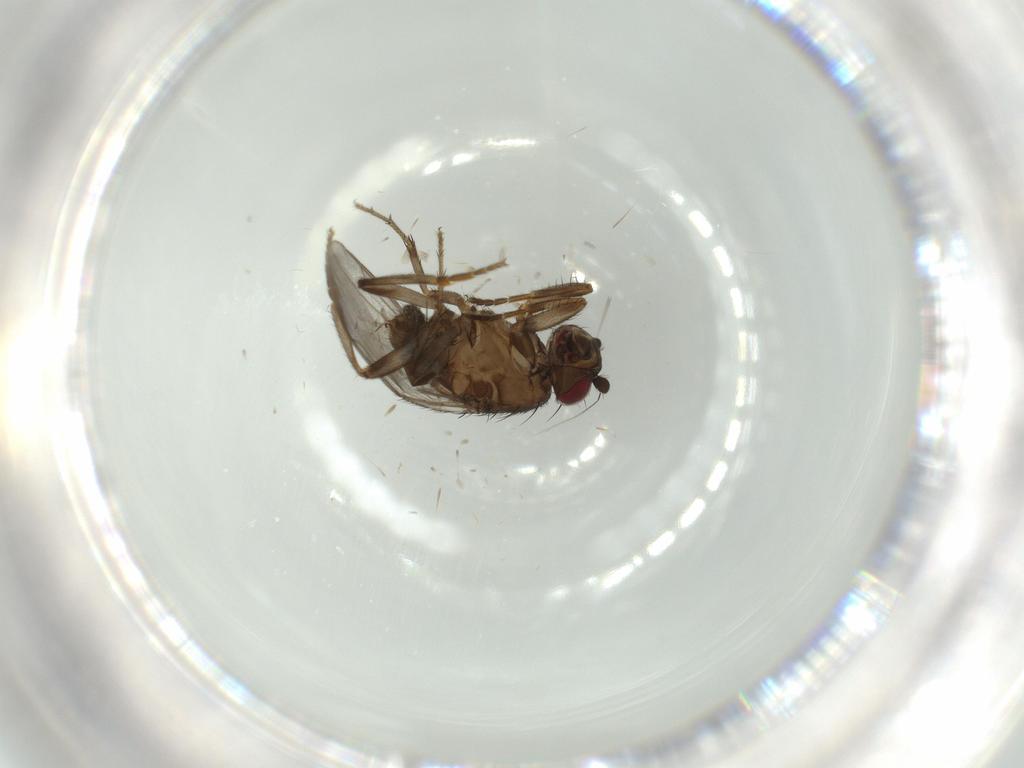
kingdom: Animalia
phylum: Arthropoda
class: Insecta
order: Diptera
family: Sphaeroceridae
